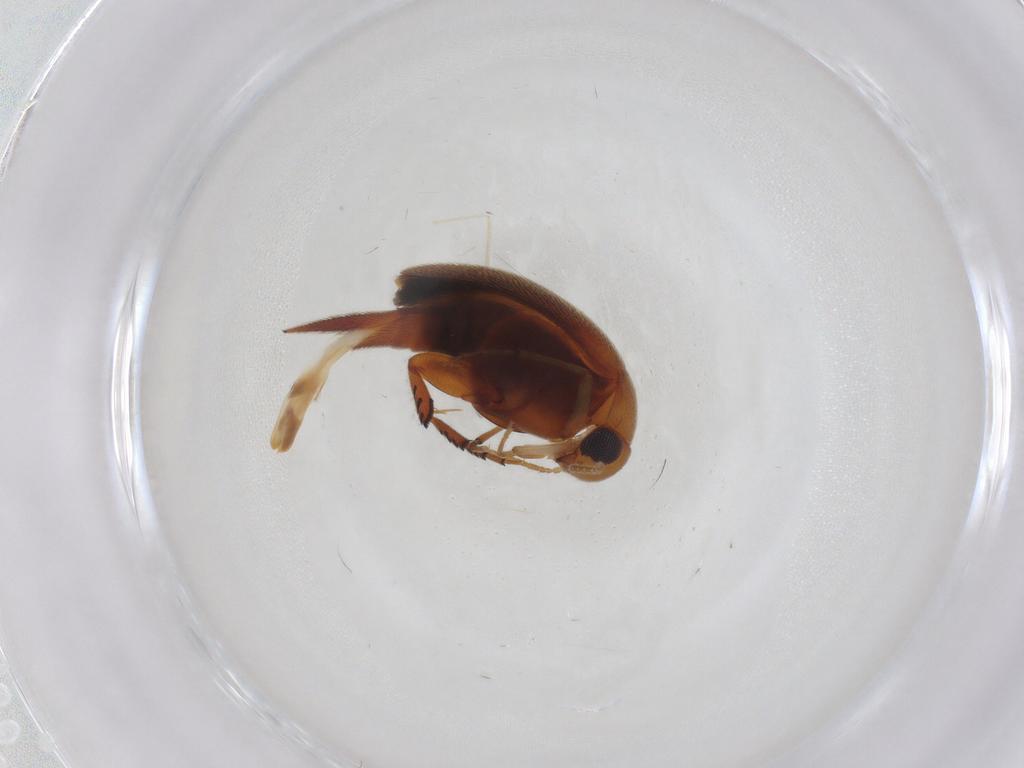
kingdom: Animalia
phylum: Arthropoda
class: Insecta
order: Coleoptera
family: Mordellidae
